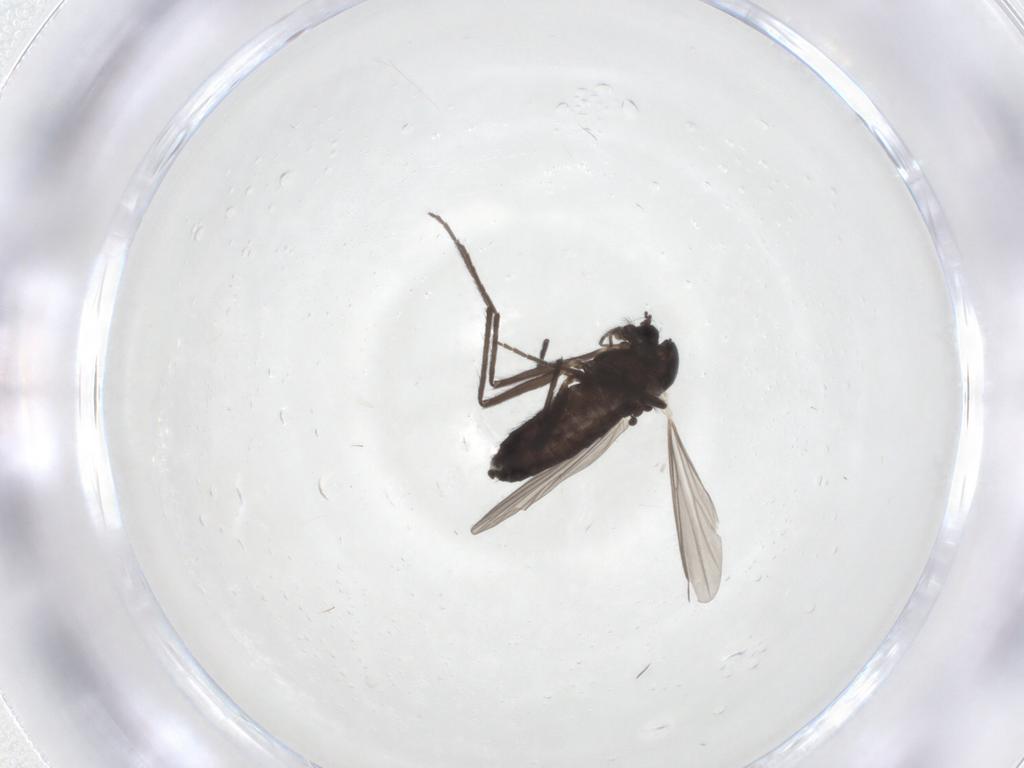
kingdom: Animalia
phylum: Arthropoda
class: Insecta
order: Diptera
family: Chironomidae
